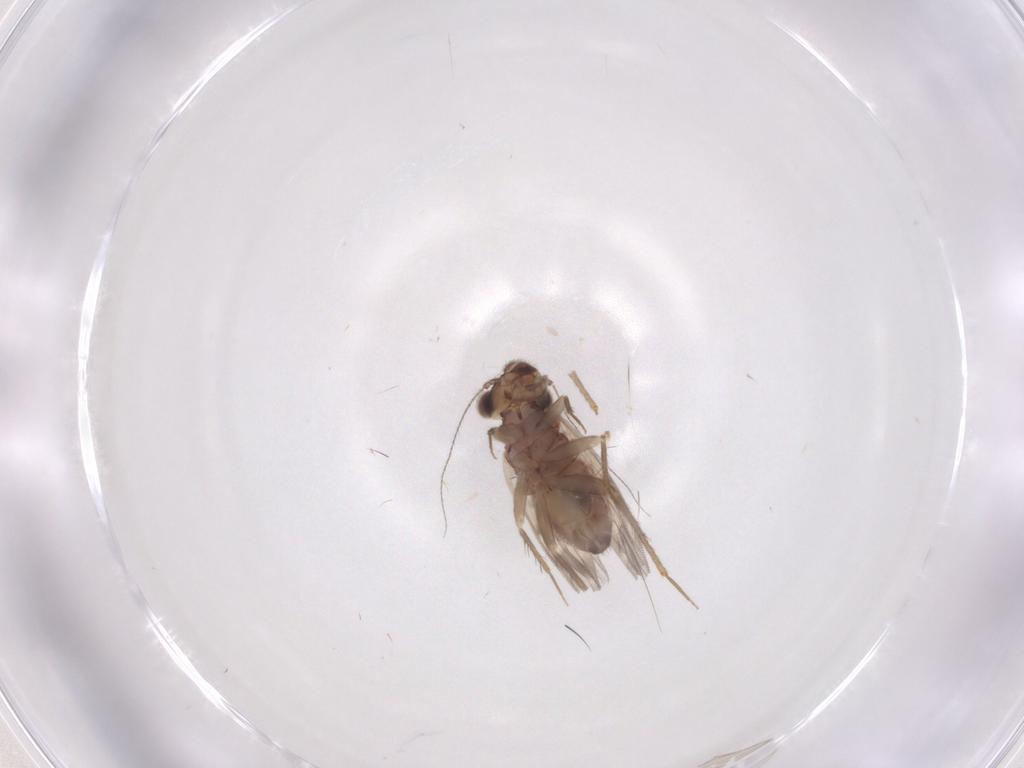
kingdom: Animalia
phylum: Arthropoda
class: Insecta
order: Psocodea
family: Lepidopsocidae
